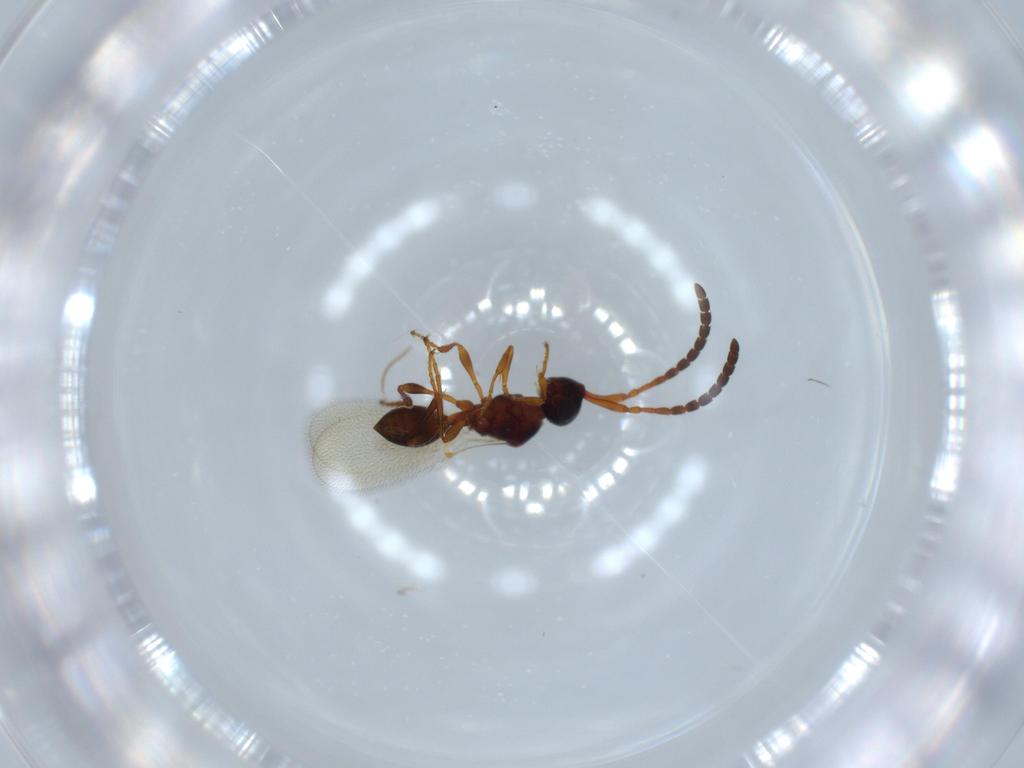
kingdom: Animalia
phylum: Arthropoda
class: Insecta
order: Hymenoptera
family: Diapriidae
